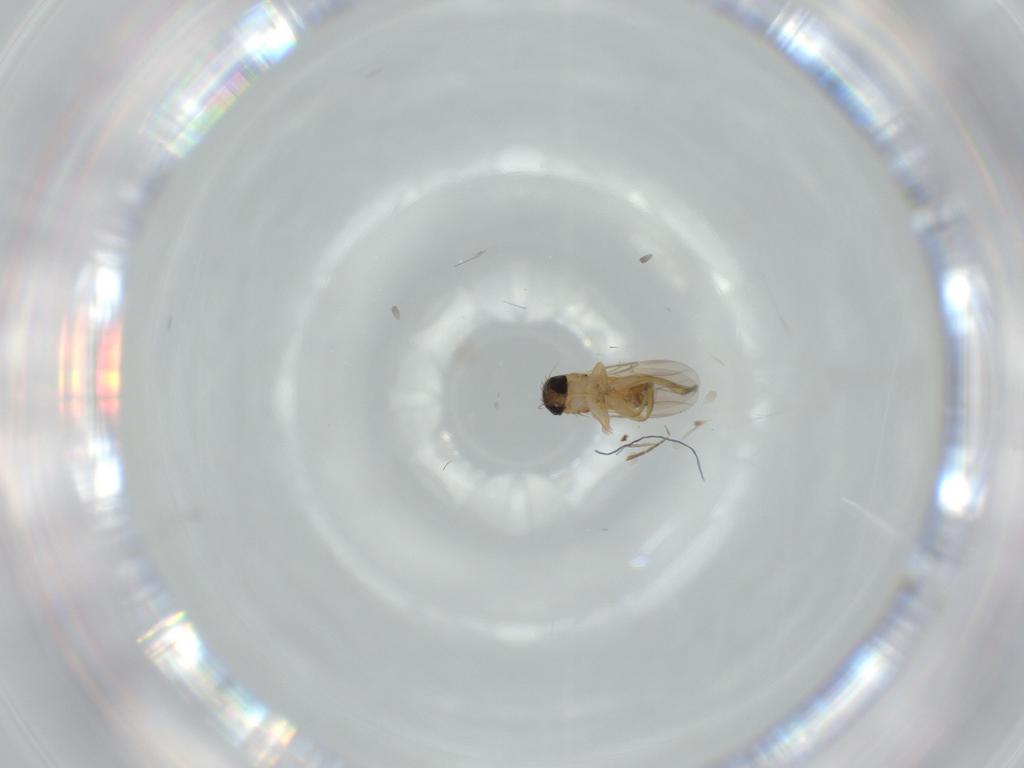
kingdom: Animalia
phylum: Arthropoda
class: Insecta
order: Diptera
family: Phoridae
